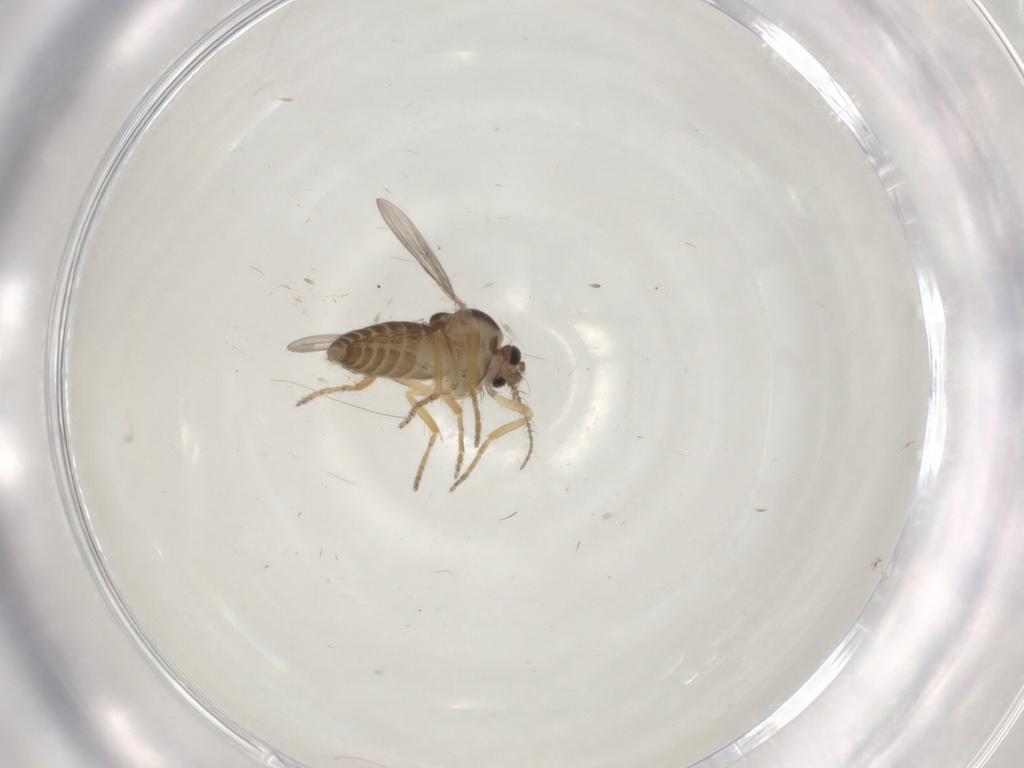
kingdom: Animalia
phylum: Arthropoda
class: Insecta
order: Diptera
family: Ceratopogonidae
